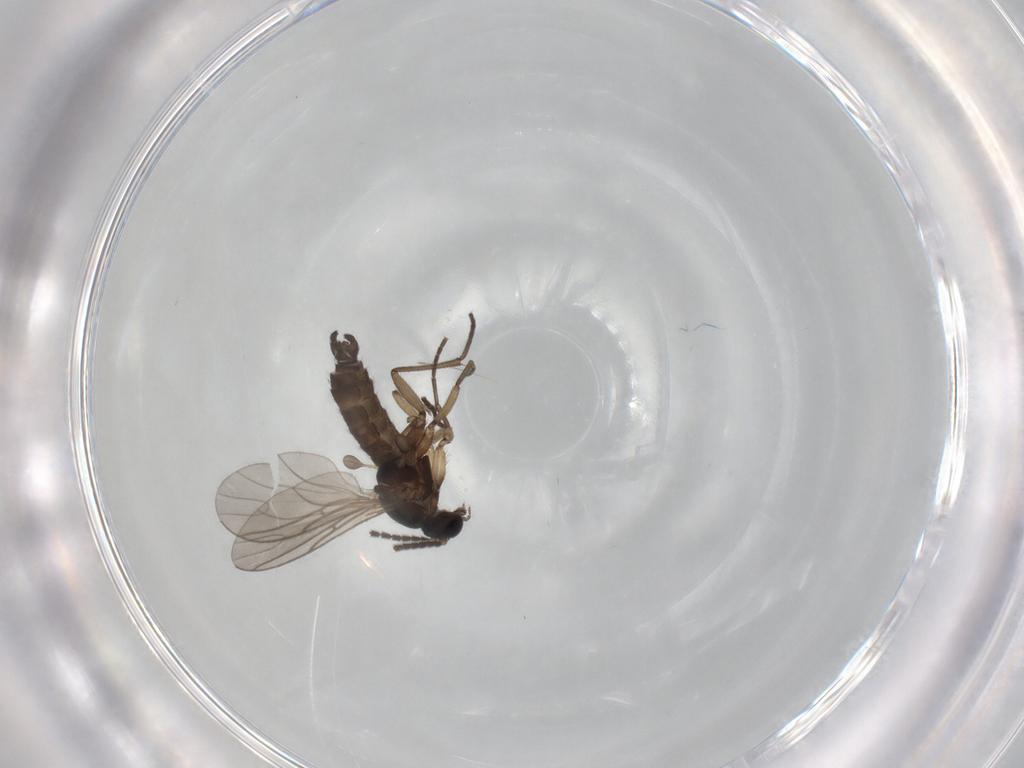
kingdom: Animalia
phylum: Arthropoda
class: Insecta
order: Diptera
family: Sciaridae
